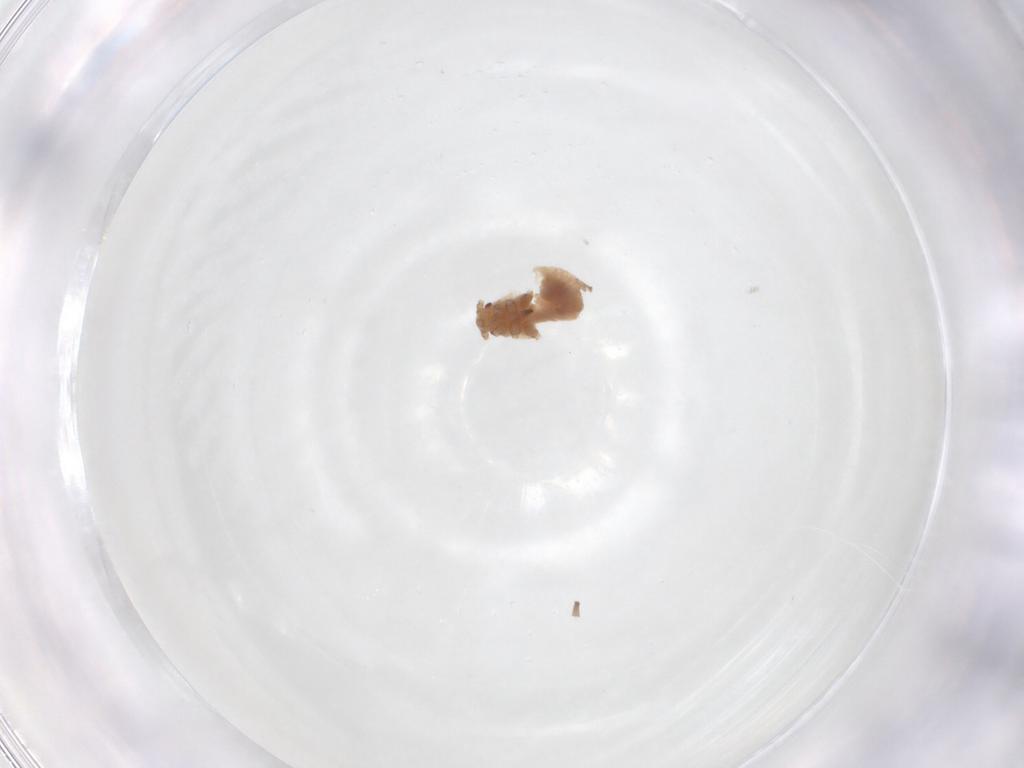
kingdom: Animalia
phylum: Arthropoda
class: Insecta
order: Hemiptera
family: Aphididae
